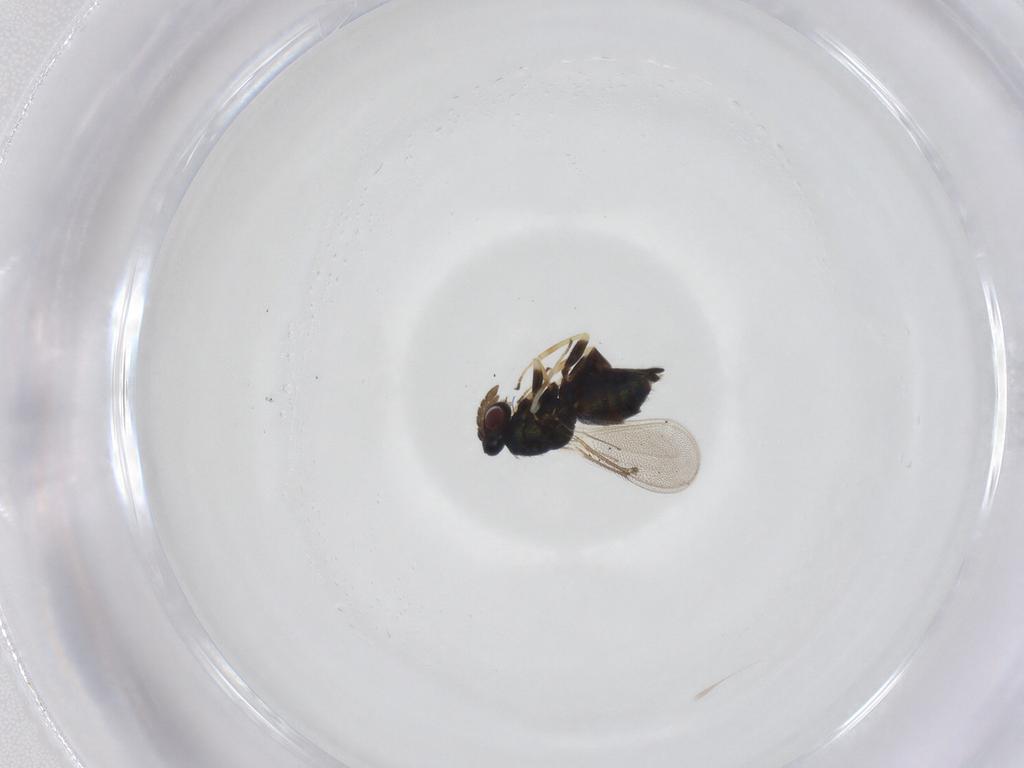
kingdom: Animalia
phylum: Arthropoda
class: Insecta
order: Hymenoptera
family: Eulophidae
